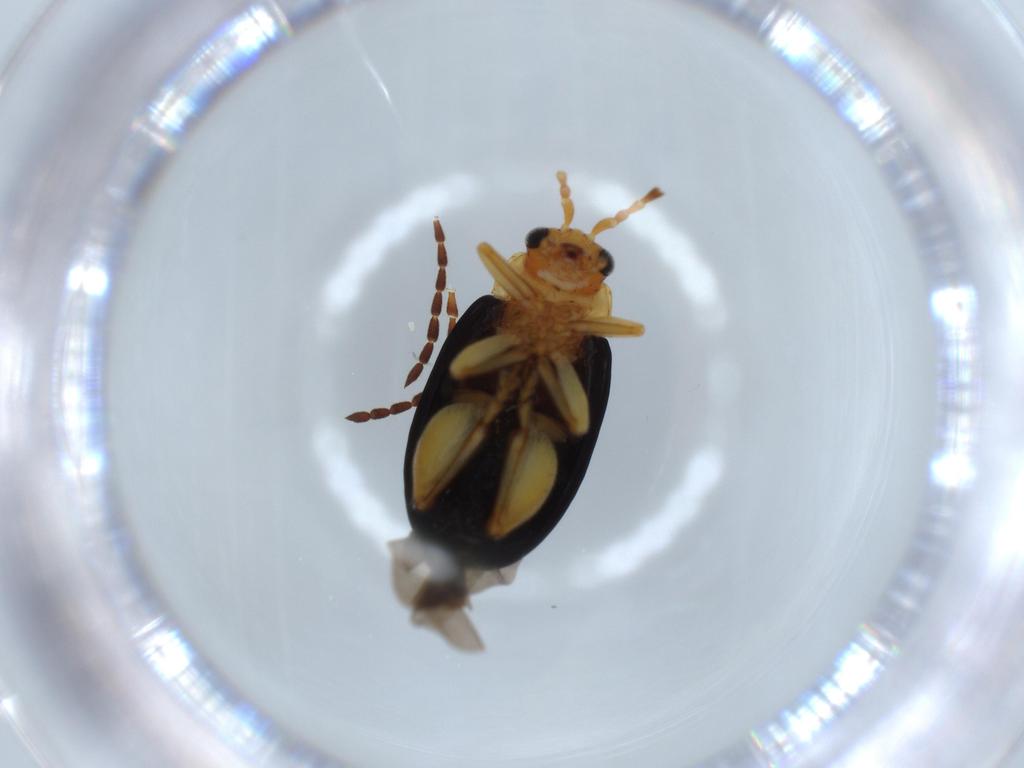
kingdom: Animalia
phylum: Arthropoda
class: Insecta
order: Coleoptera
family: Chrysomelidae
